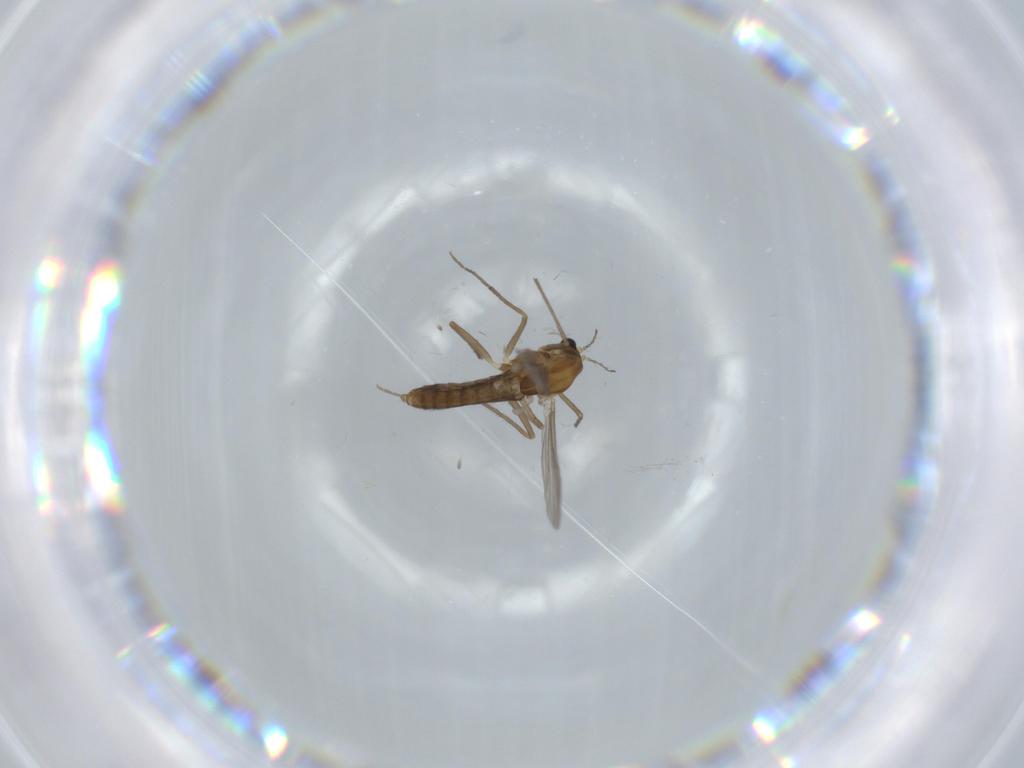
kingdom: Animalia
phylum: Arthropoda
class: Insecta
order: Diptera
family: Chironomidae
